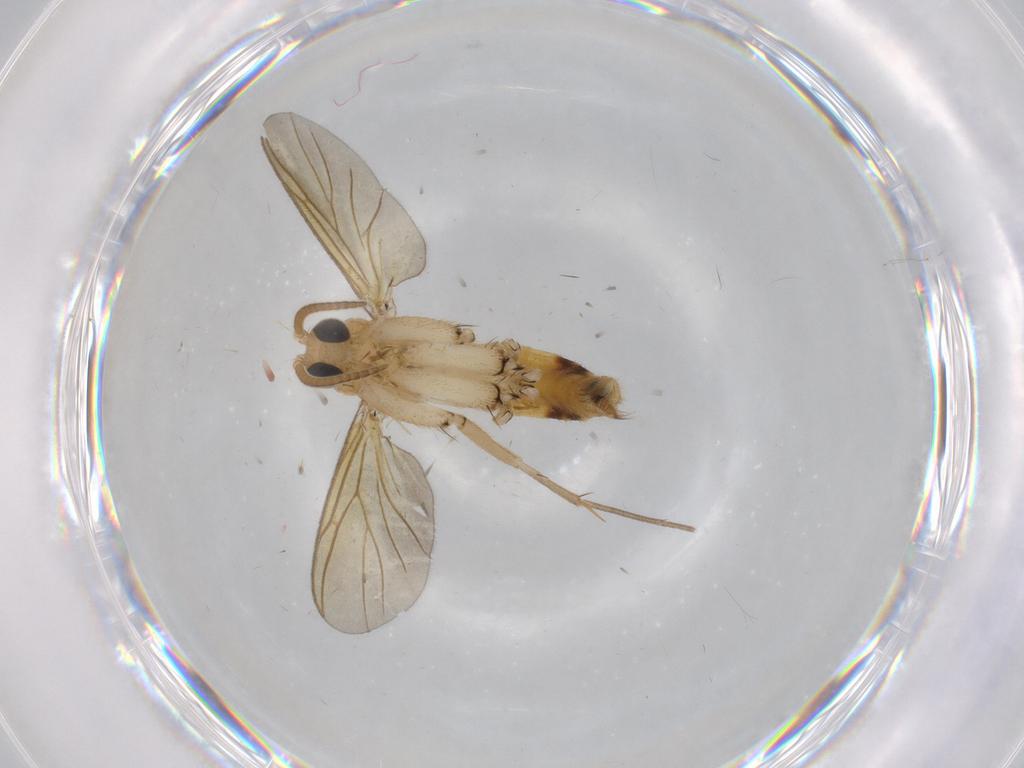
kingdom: Animalia
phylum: Arthropoda
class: Insecta
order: Diptera
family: Cecidomyiidae
